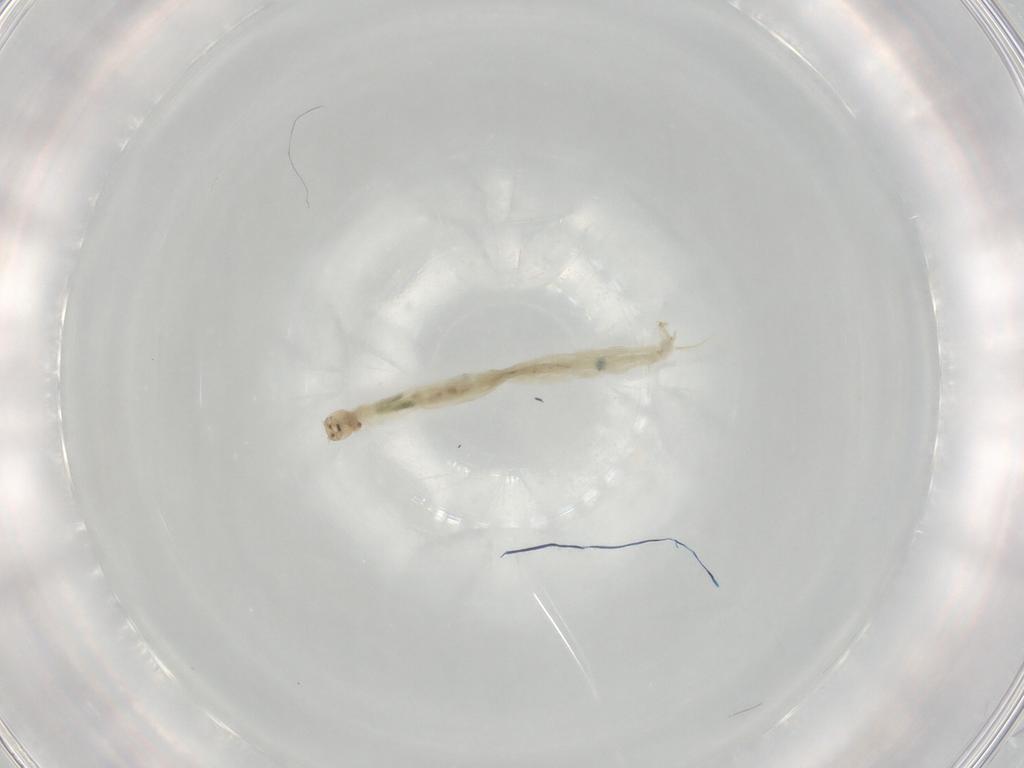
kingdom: Animalia
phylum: Arthropoda
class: Insecta
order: Diptera
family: Chironomidae
